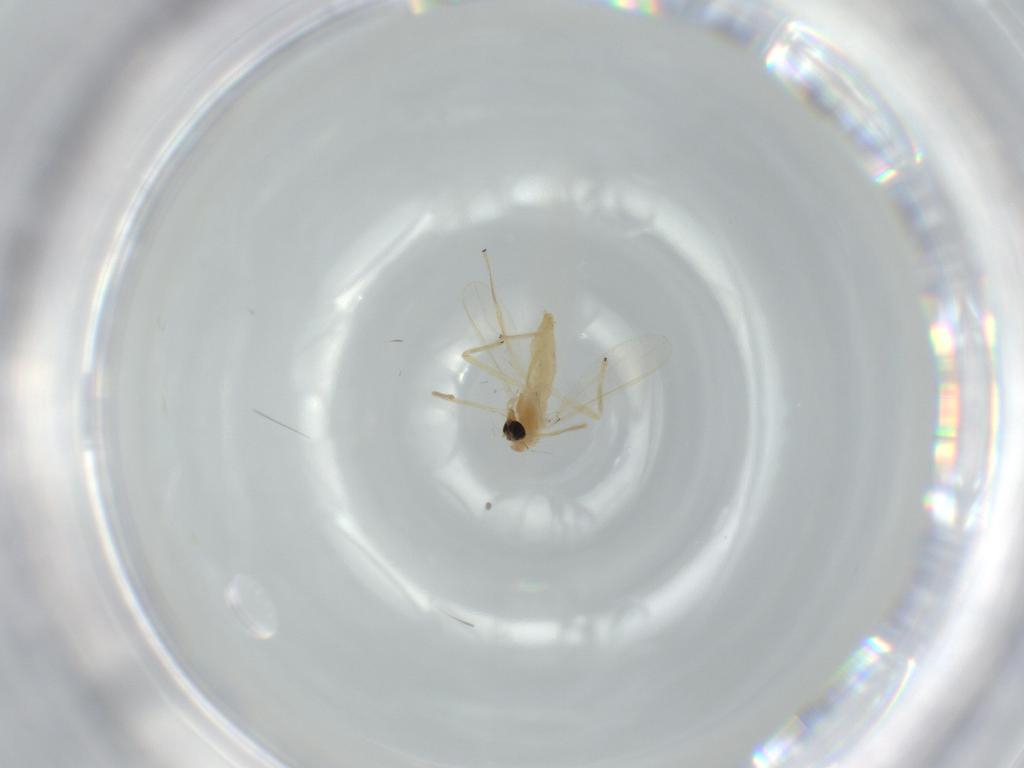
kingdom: Animalia
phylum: Arthropoda
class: Insecta
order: Diptera
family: Chironomidae
